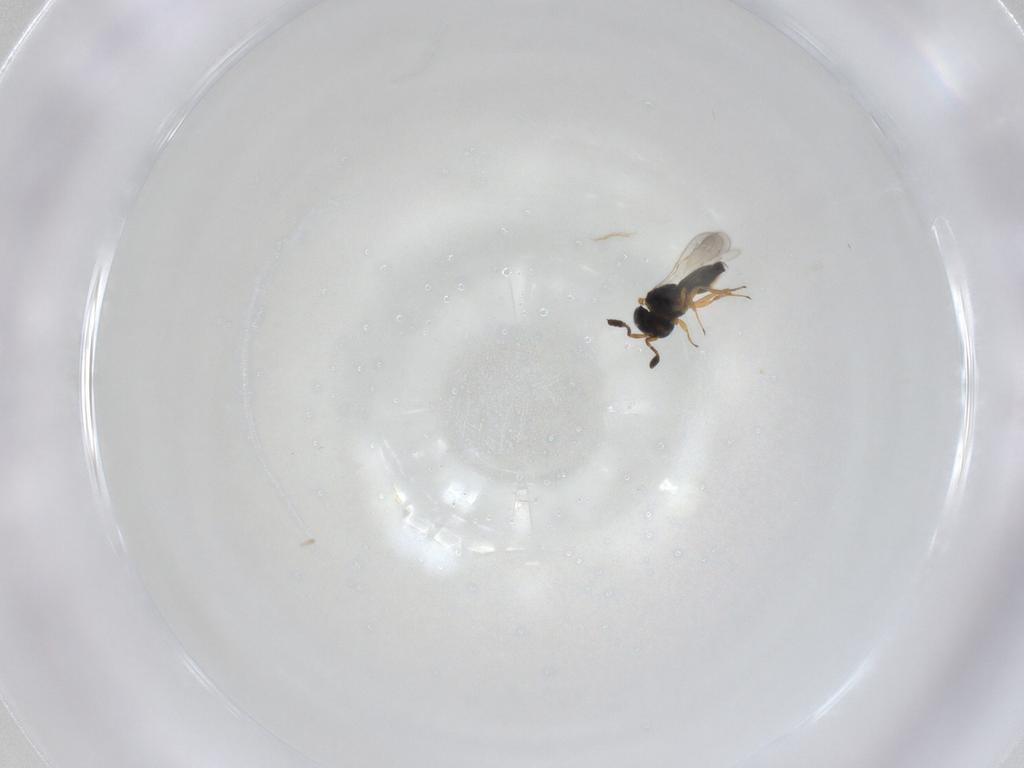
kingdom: Animalia
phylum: Arthropoda
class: Insecta
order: Hymenoptera
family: Scelionidae
